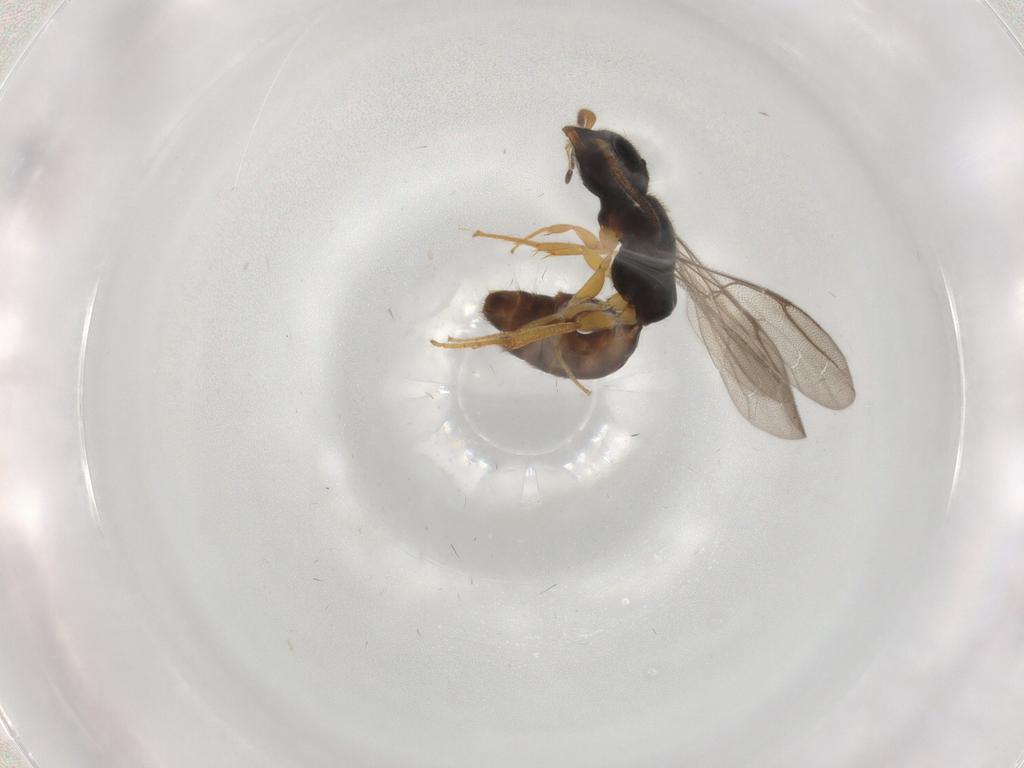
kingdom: Animalia
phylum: Arthropoda
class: Insecta
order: Hymenoptera
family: Bethylidae
